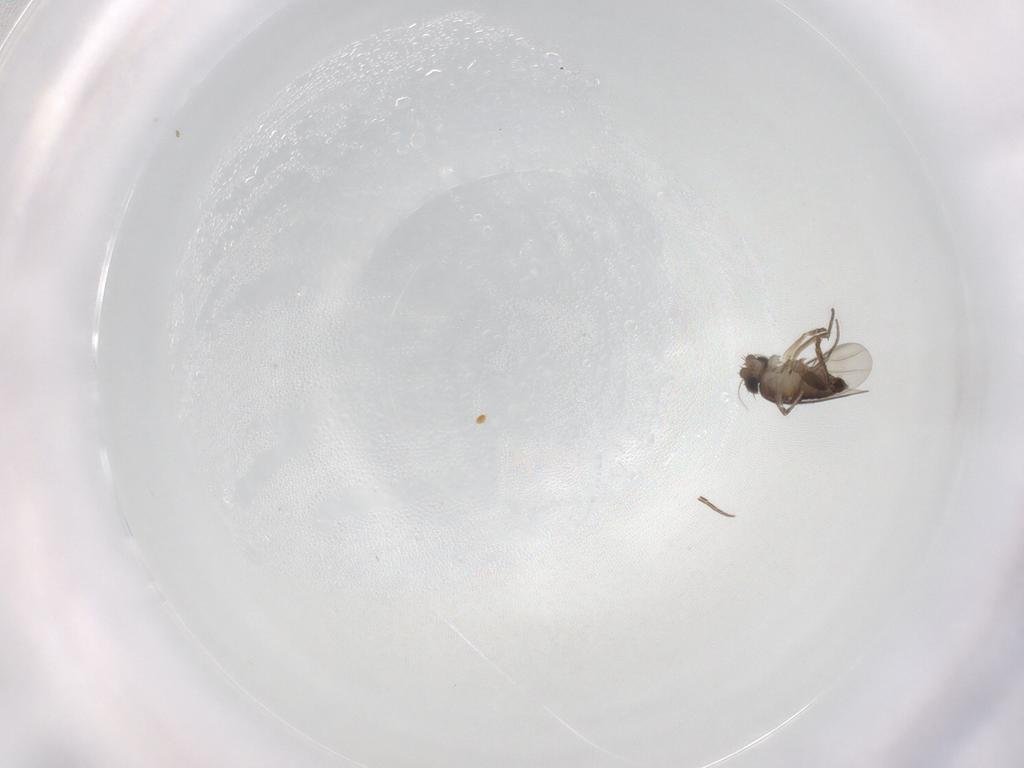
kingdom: Animalia
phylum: Arthropoda
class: Insecta
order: Diptera
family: Phoridae
